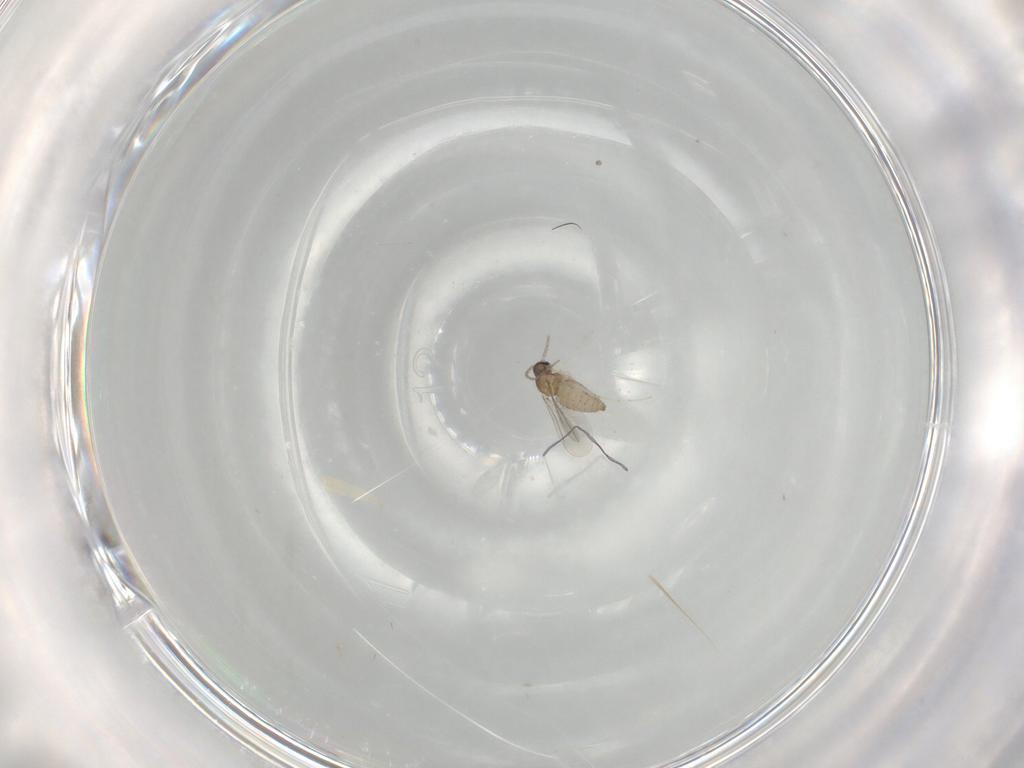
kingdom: Animalia
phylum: Arthropoda
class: Insecta
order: Diptera
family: Cecidomyiidae
